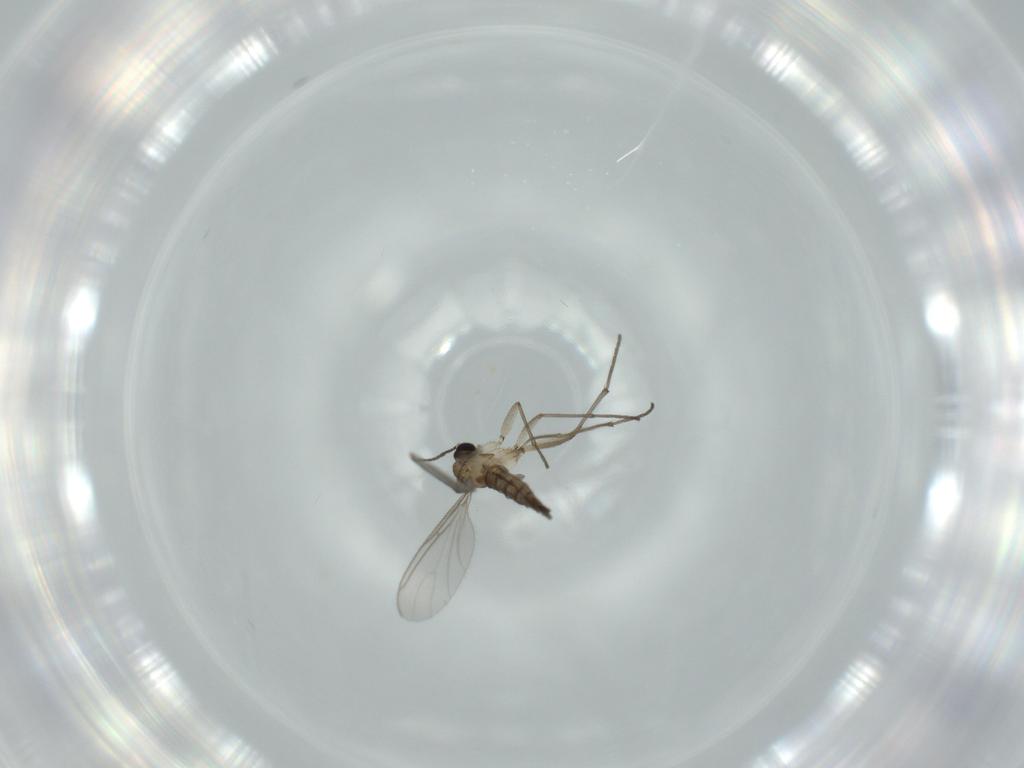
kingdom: Animalia
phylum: Arthropoda
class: Insecta
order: Diptera
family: Sciaridae
